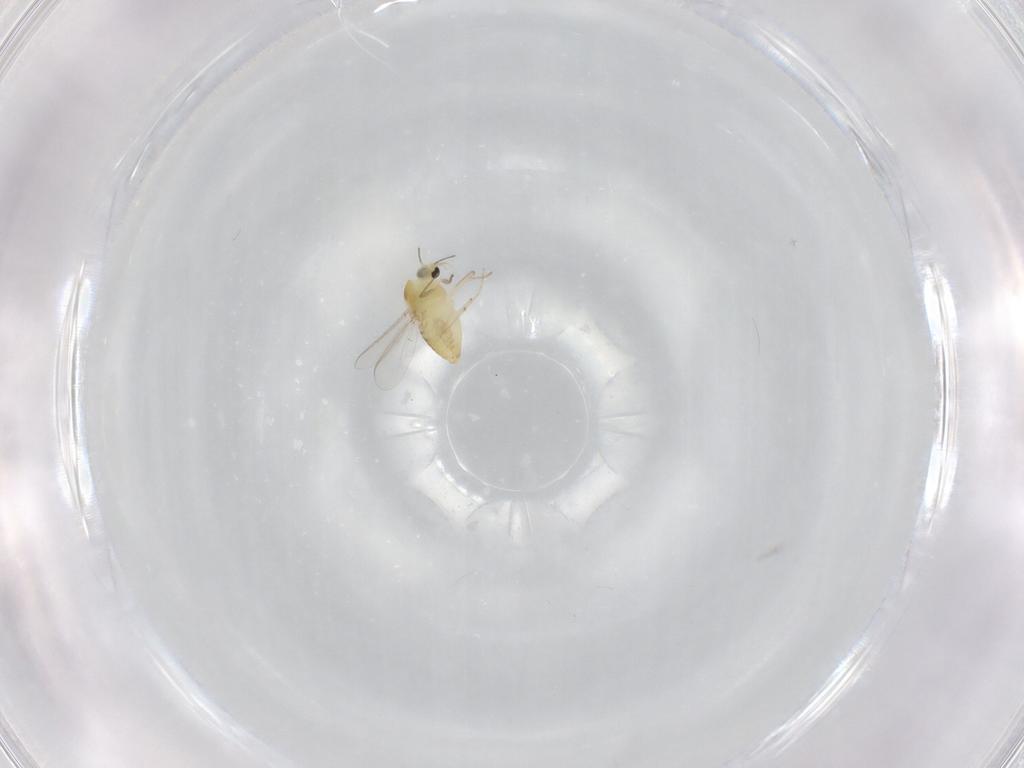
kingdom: Animalia
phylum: Arthropoda
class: Insecta
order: Diptera
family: Chironomidae
